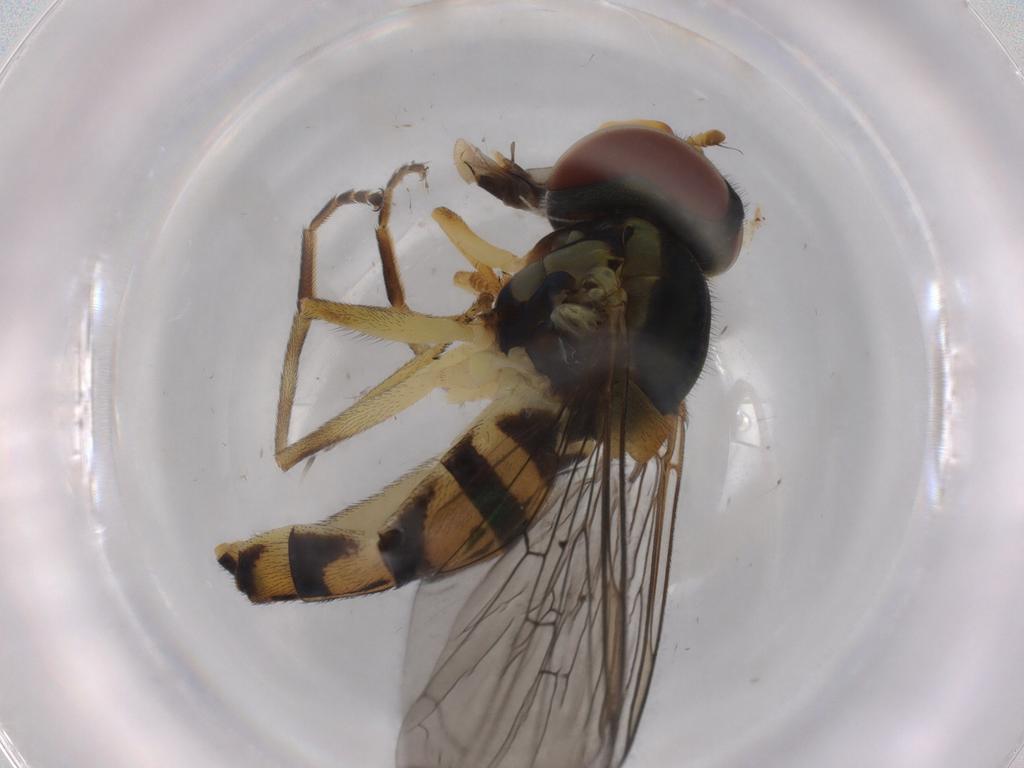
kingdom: Animalia
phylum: Arthropoda
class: Insecta
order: Diptera
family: Syrphidae
